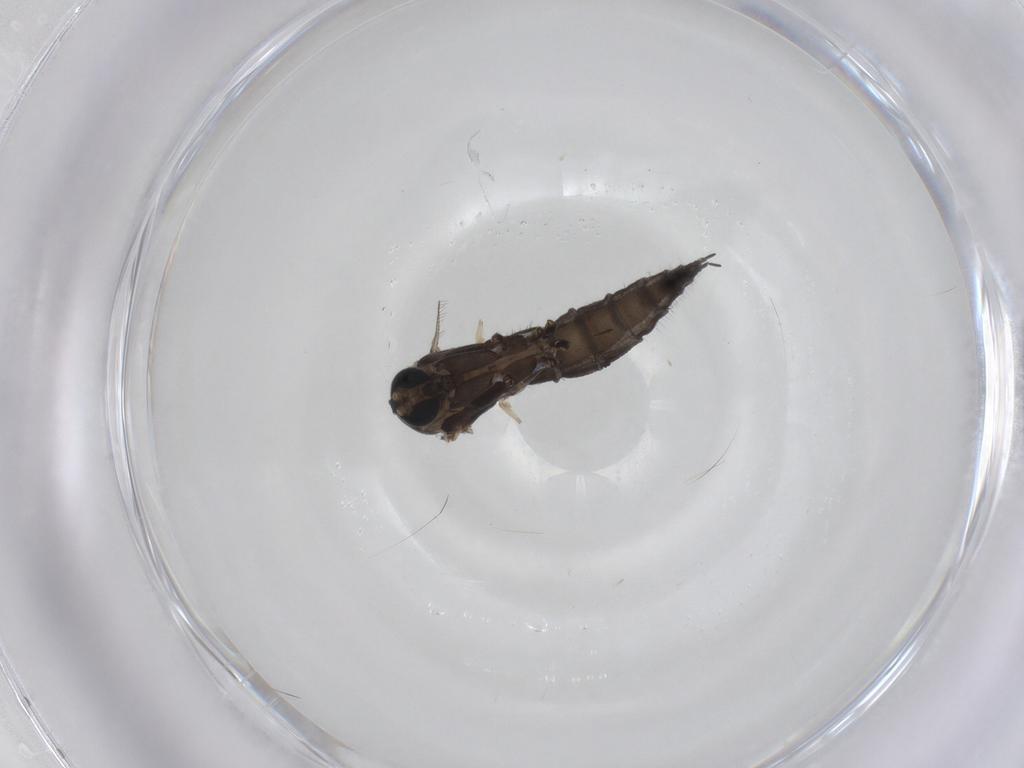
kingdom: Animalia
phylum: Arthropoda
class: Insecta
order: Diptera
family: Sciaridae
